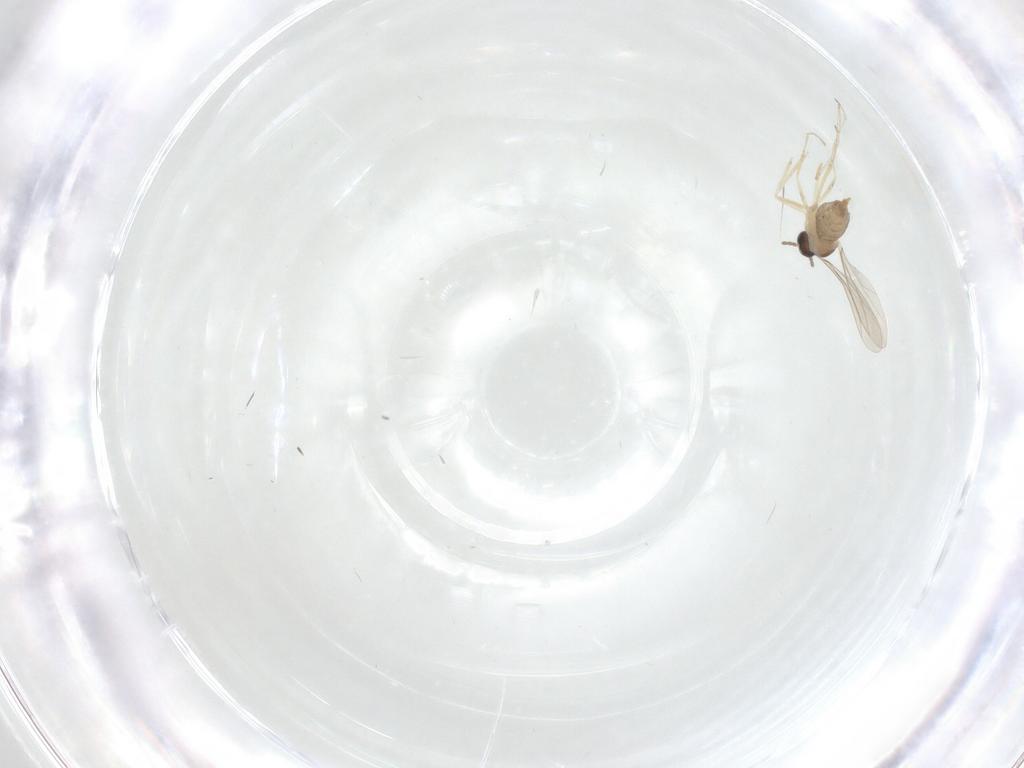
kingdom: Animalia
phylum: Arthropoda
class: Insecta
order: Diptera
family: Cecidomyiidae
